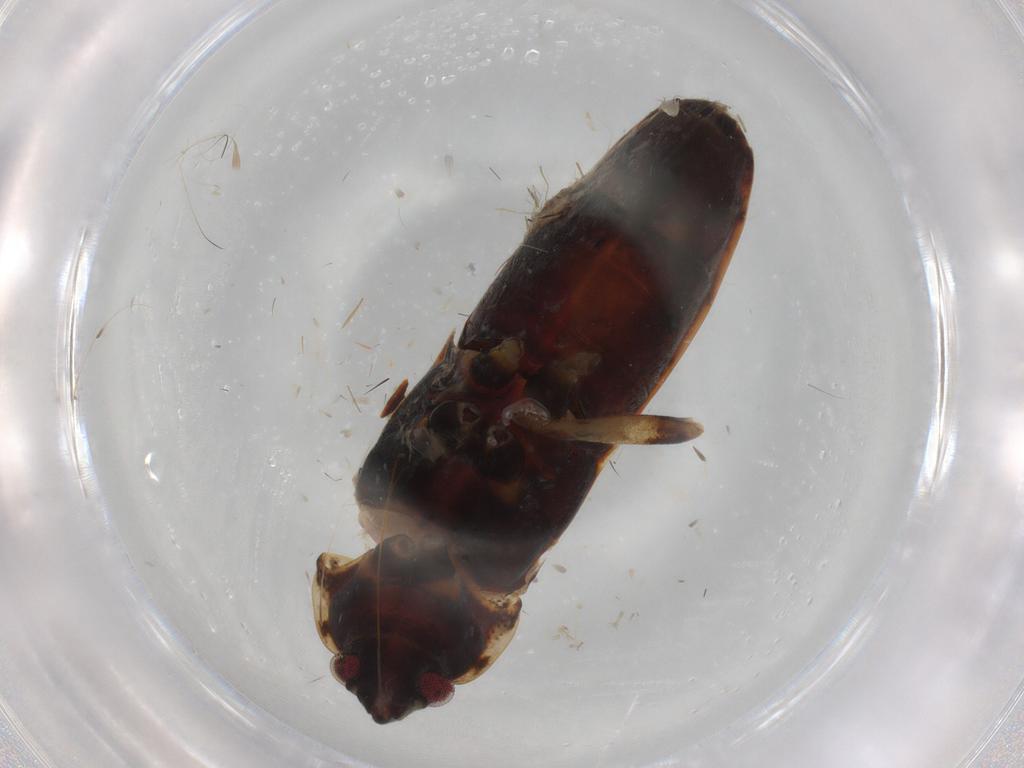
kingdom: Animalia
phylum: Arthropoda
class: Insecta
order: Hemiptera
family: Rhyparochromidae
